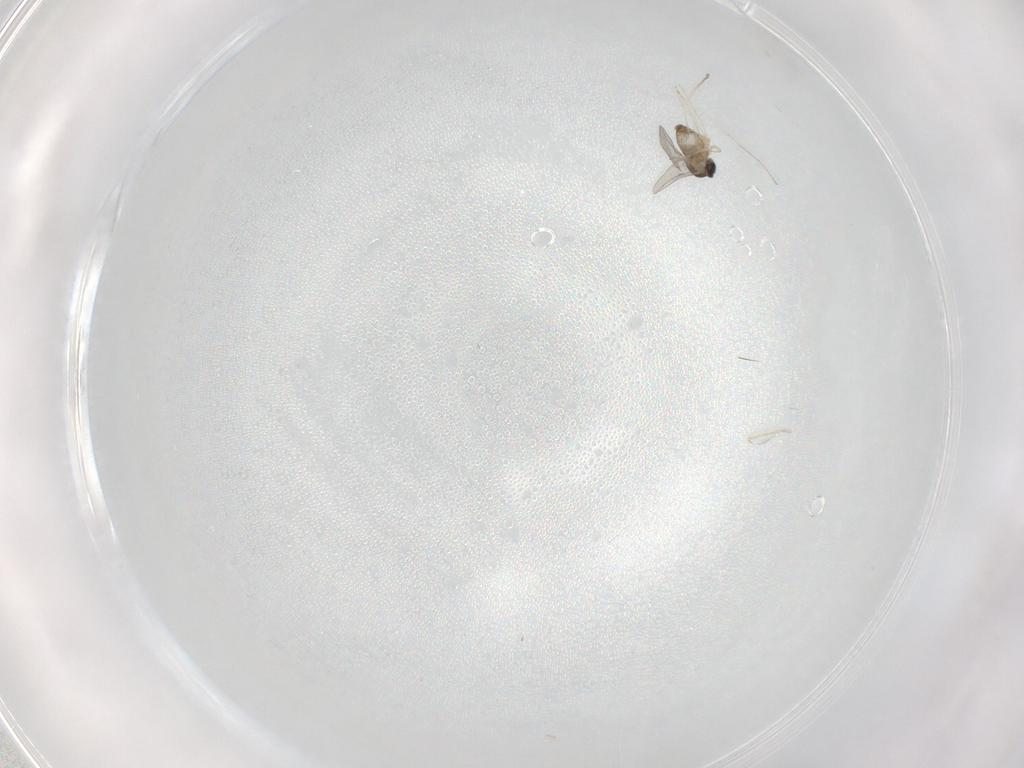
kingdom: Animalia
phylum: Arthropoda
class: Insecta
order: Diptera
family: Cecidomyiidae
